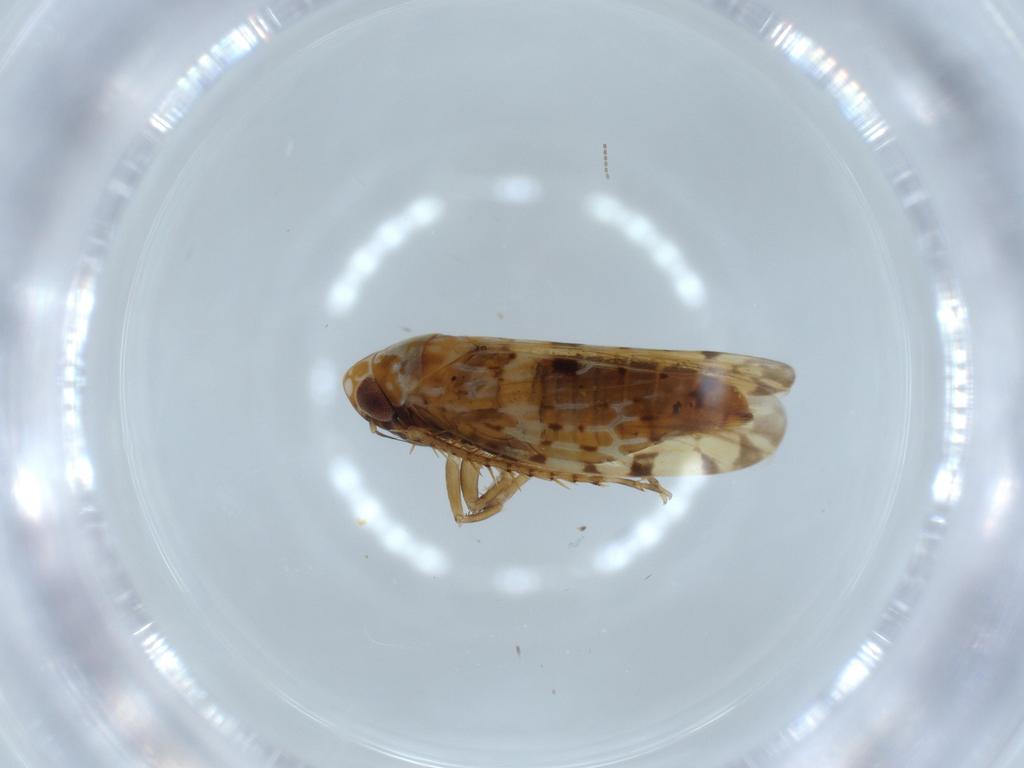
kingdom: Animalia
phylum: Arthropoda
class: Insecta
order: Hemiptera
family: Cicadellidae
